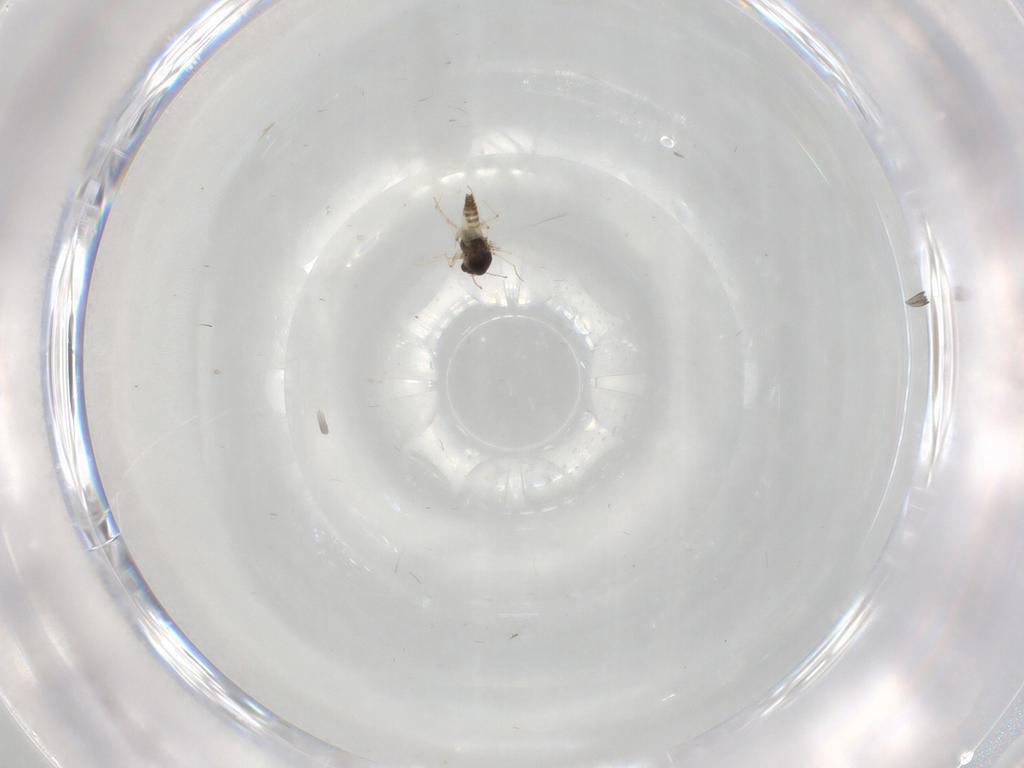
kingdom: Animalia
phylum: Arthropoda
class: Insecta
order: Diptera
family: Chironomidae
